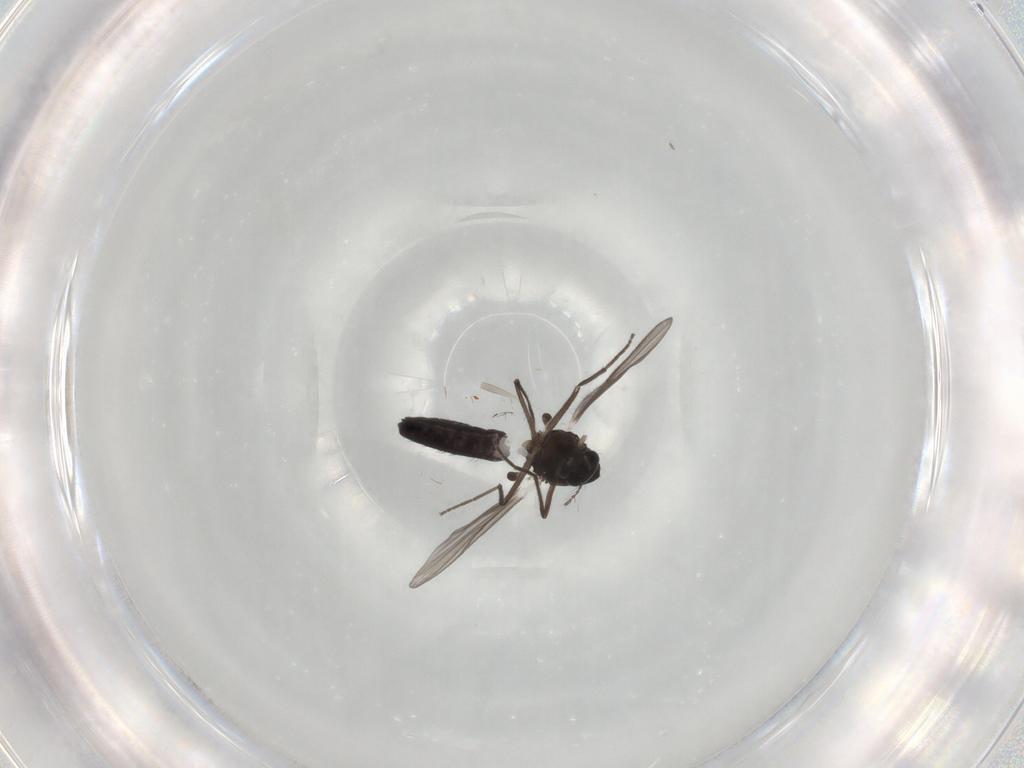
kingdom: Animalia
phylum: Arthropoda
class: Insecta
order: Diptera
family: Chironomidae
